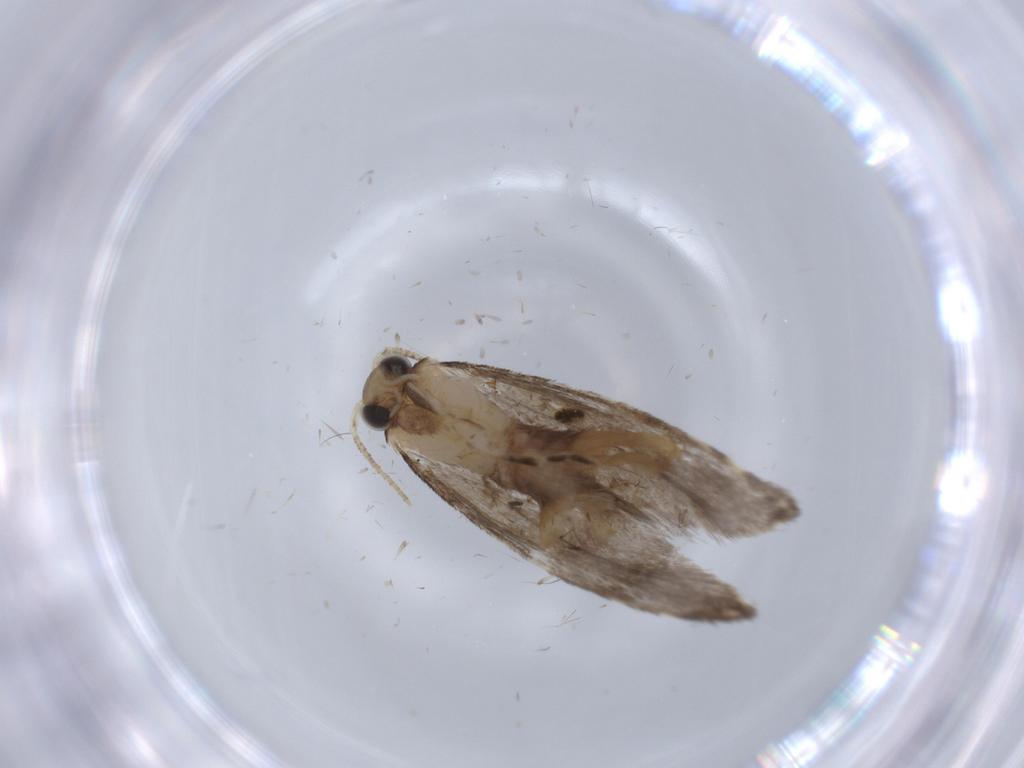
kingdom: Animalia
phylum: Arthropoda
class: Insecta
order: Lepidoptera
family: Tineidae
